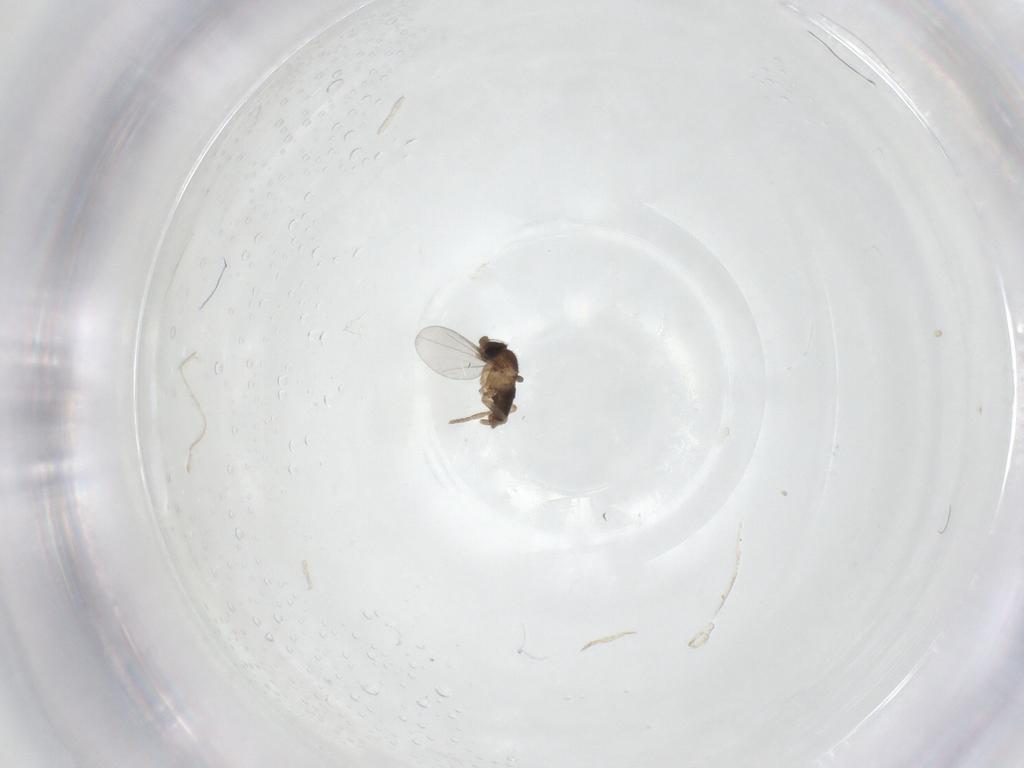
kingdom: Animalia
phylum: Arthropoda
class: Insecta
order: Diptera
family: Phoridae
